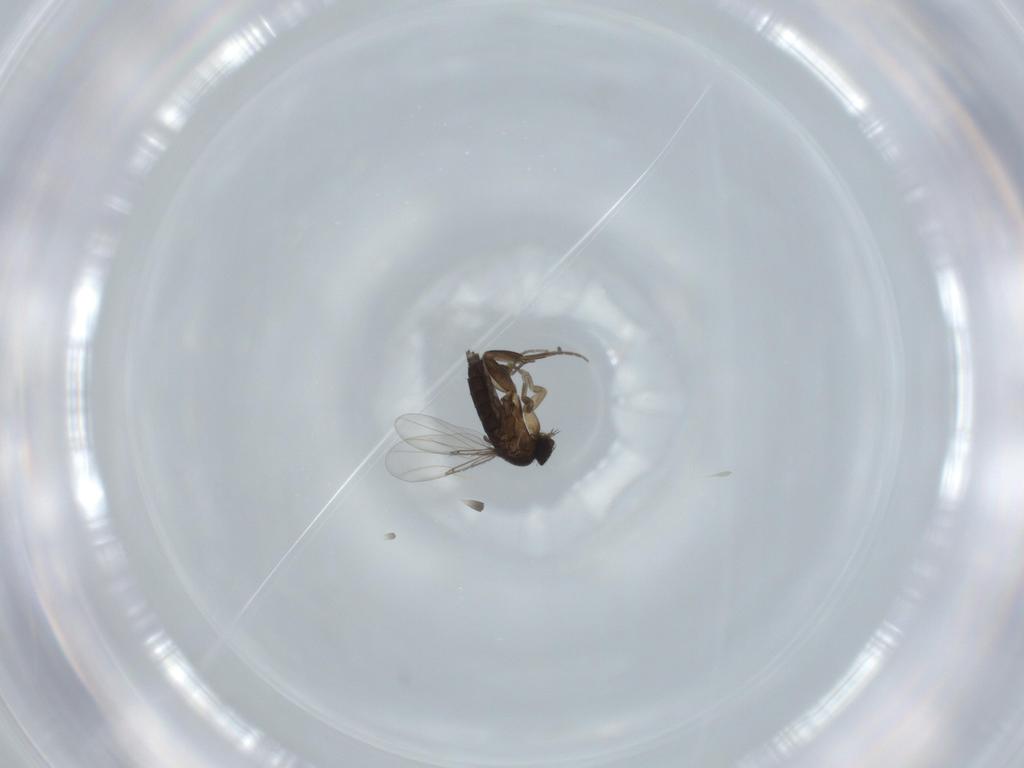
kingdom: Animalia
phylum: Arthropoda
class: Insecta
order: Diptera
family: Phoridae
